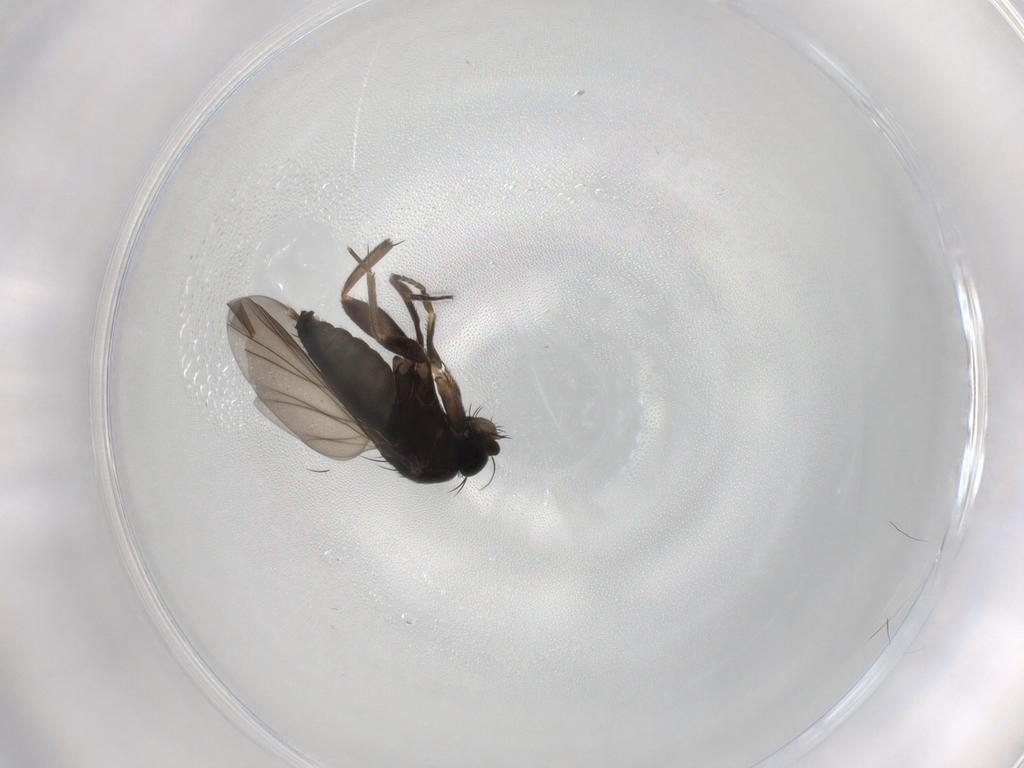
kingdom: Animalia
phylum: Arthropoda
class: Insecta
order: Diptera
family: Phoridae
